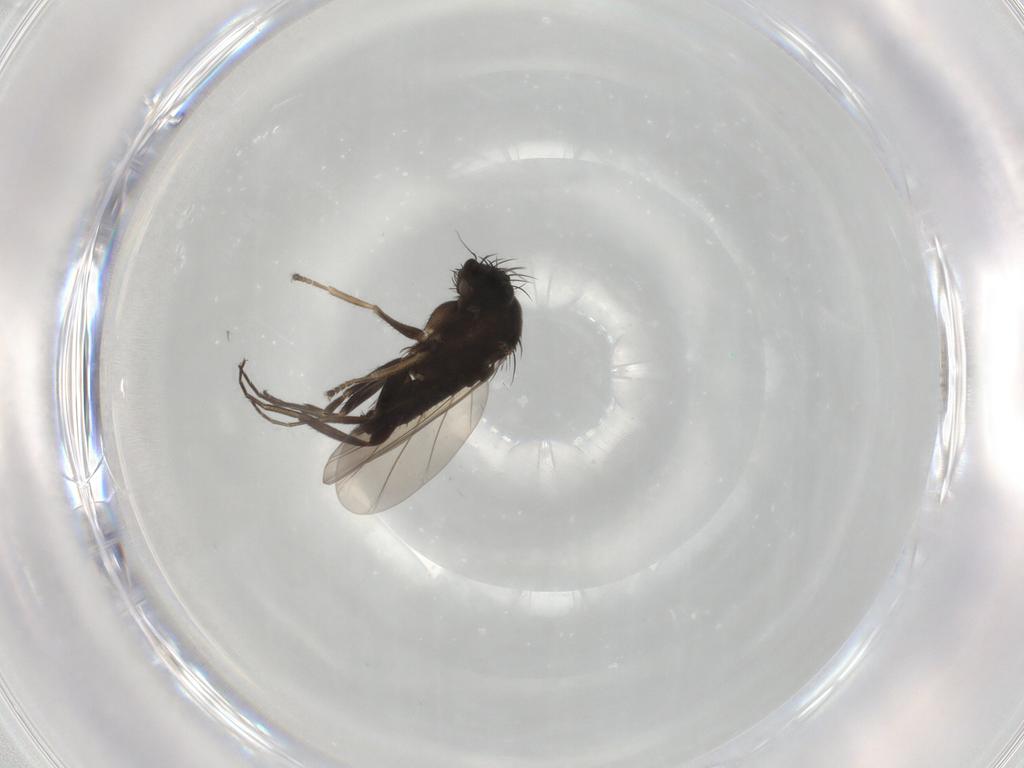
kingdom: Animalia
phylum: Arthropoda
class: Insecta
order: Diptera
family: Phoridae
